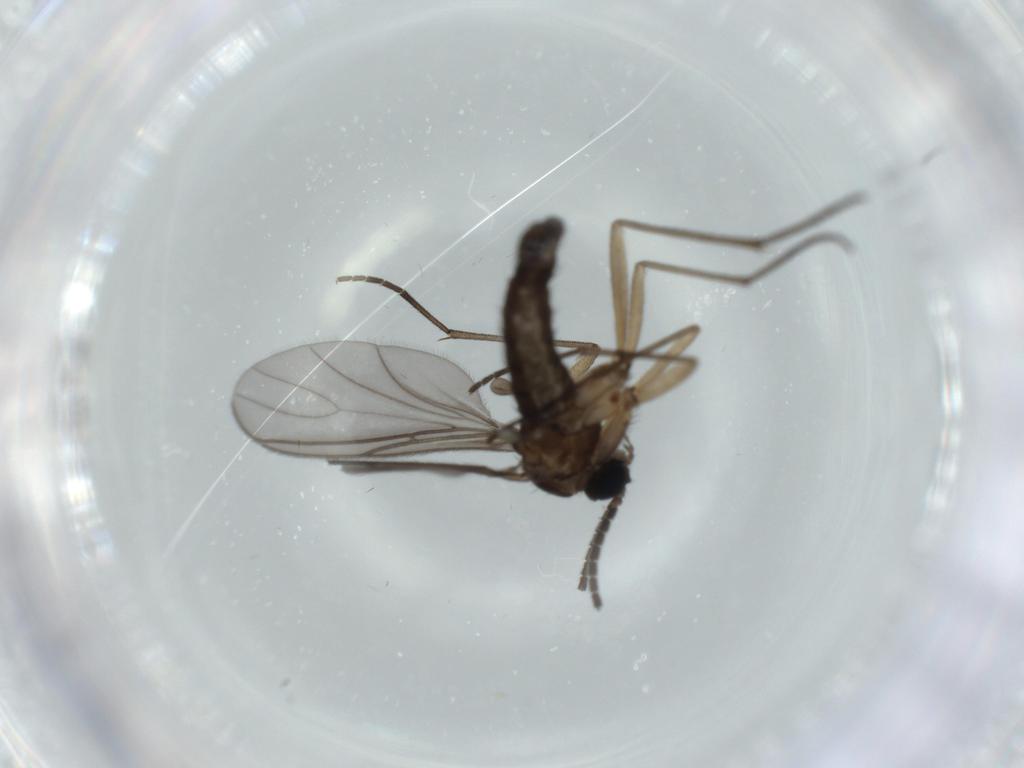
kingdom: Animalia
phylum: Arthropoda
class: Insecta
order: Diptera
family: Sciaridae
